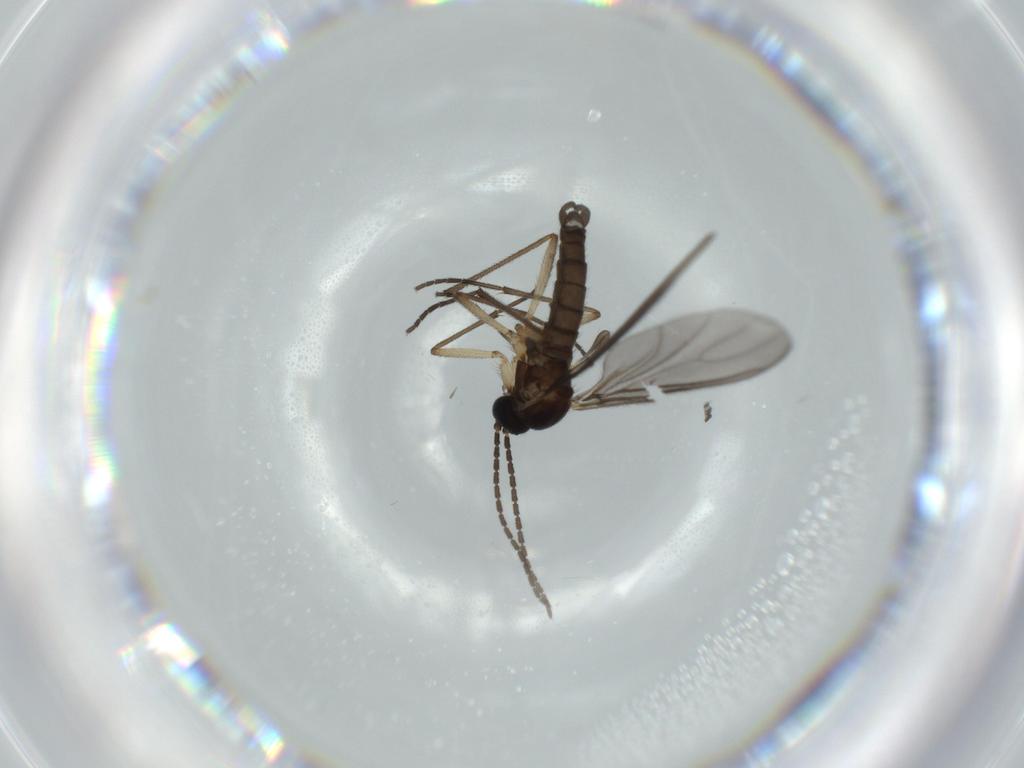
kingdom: Animalia
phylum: Arthropoda
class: Insecta
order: Diptera
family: Sciaridae
